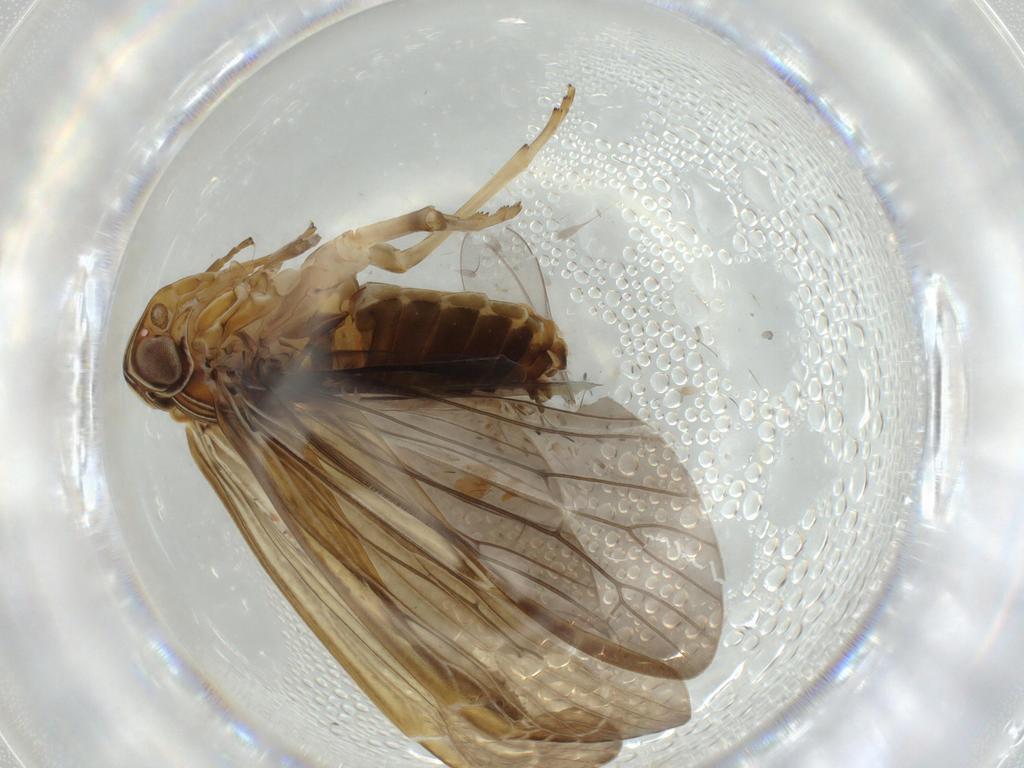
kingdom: Animalia
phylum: Arthropoda
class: Insecta
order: Hemiptera
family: Achilidae
